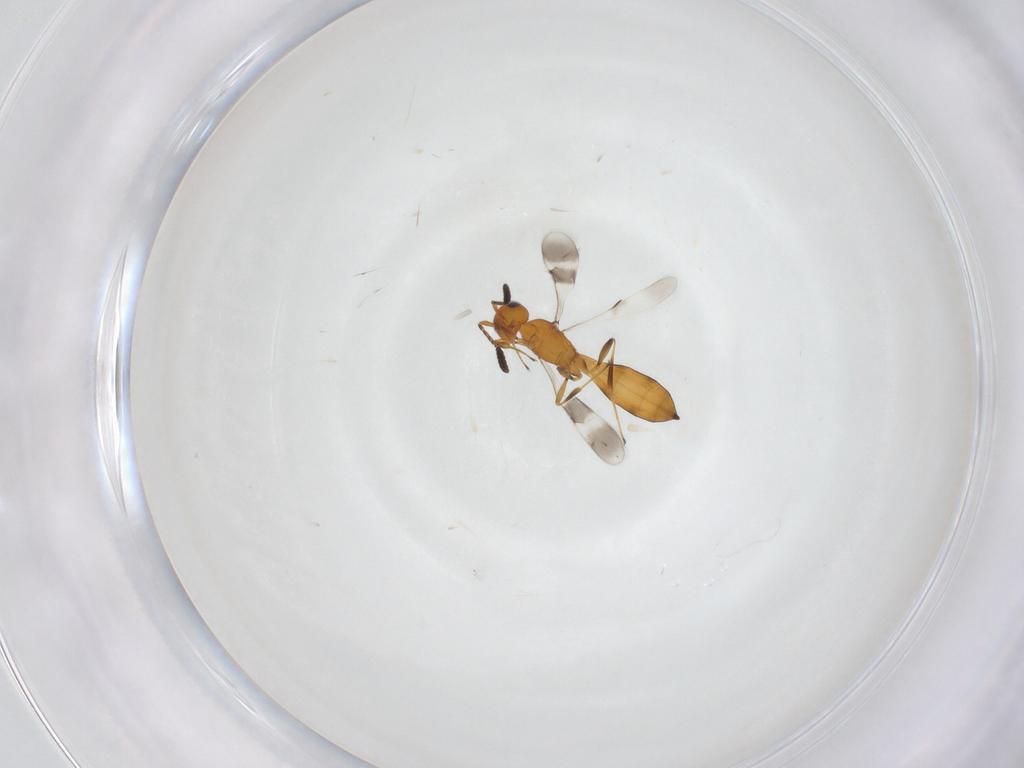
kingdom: Animalia
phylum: Arthropoda
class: Insecta
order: Hymenoptera
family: Scelionidae
